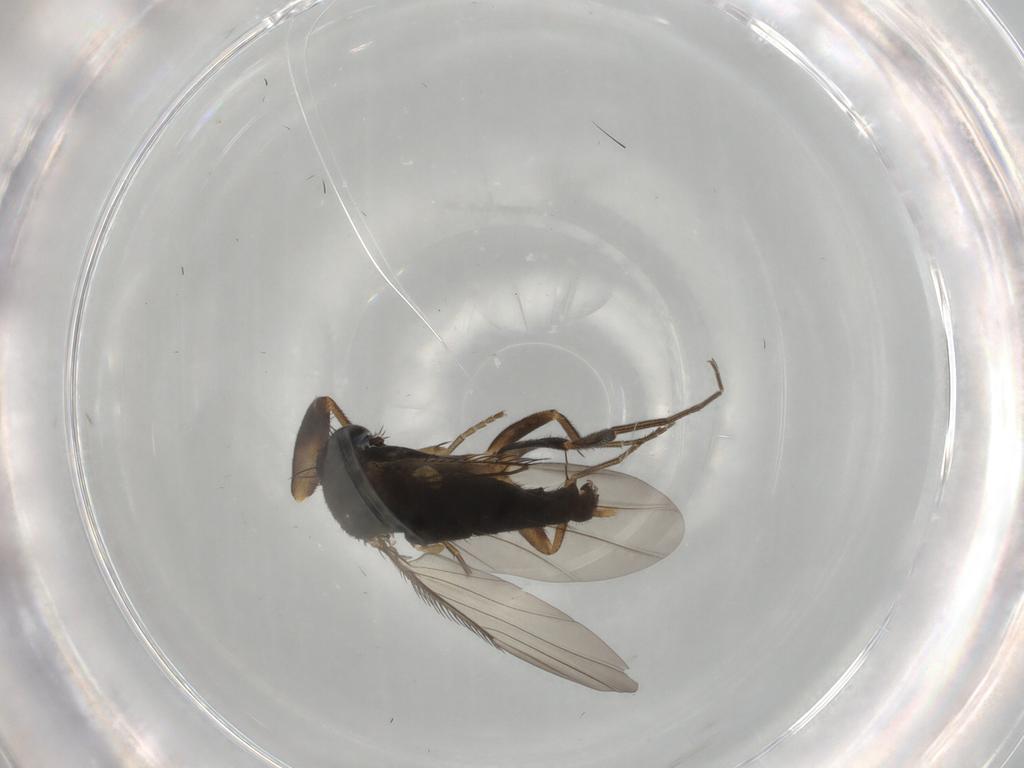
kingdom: Animalia
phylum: Arthropoda
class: Insecta
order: Diptera
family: Phoridae
